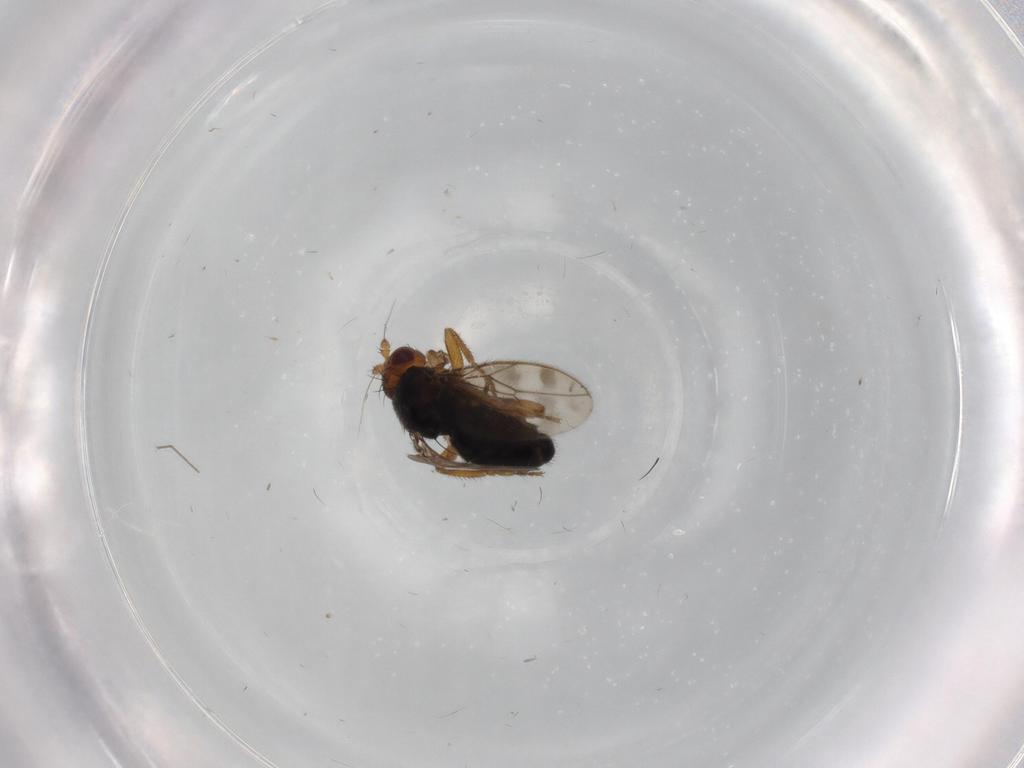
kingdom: Animalia
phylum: Arthropoda
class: Insecta
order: Diptera
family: Sphaeroceridae
